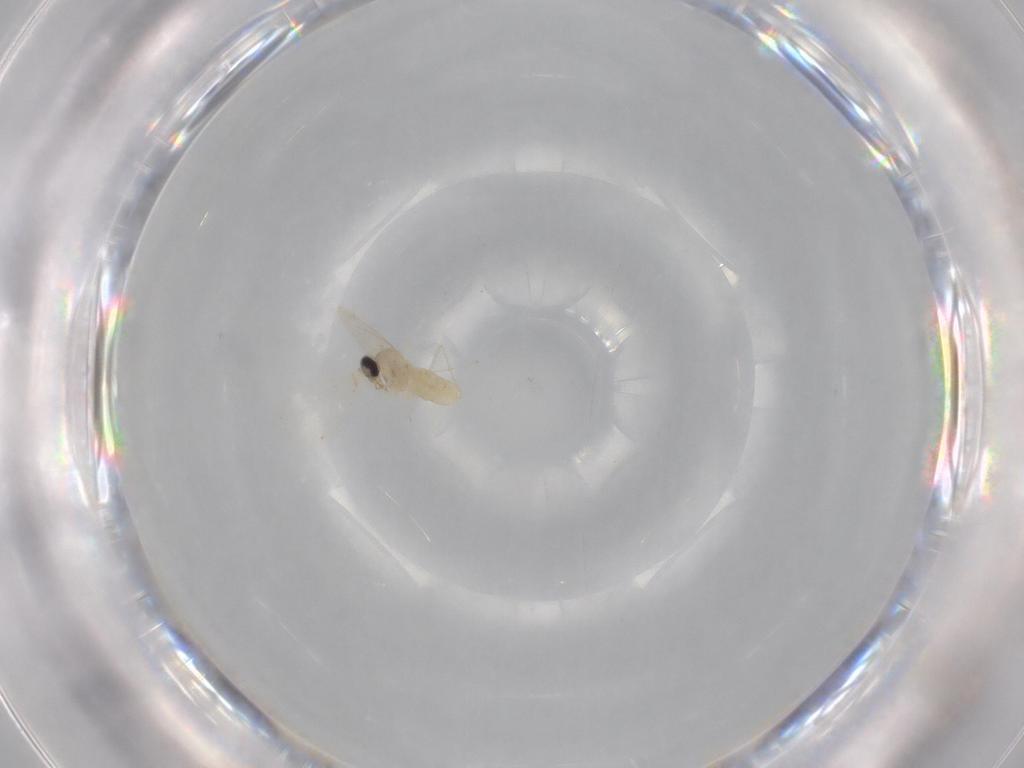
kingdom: Animalia
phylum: Arthropoda
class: Insecta
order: Diptera
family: Cecidomyiidae
